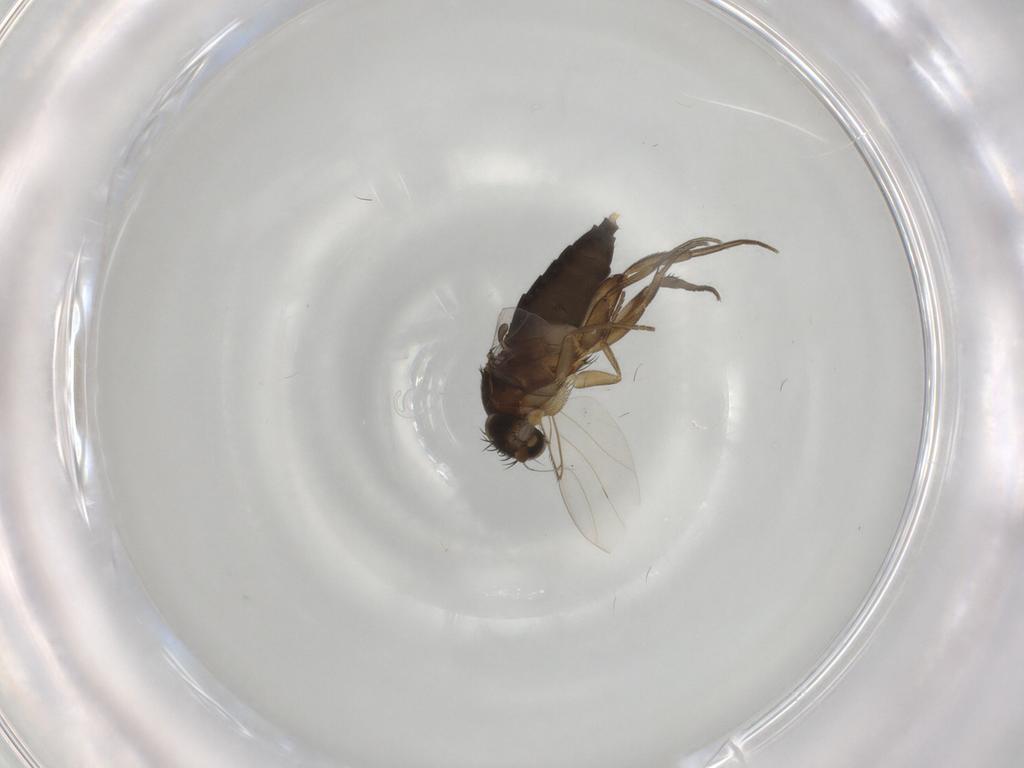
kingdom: Animalia
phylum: Arthropoda
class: Insecta
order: Diptera
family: Phoridae
